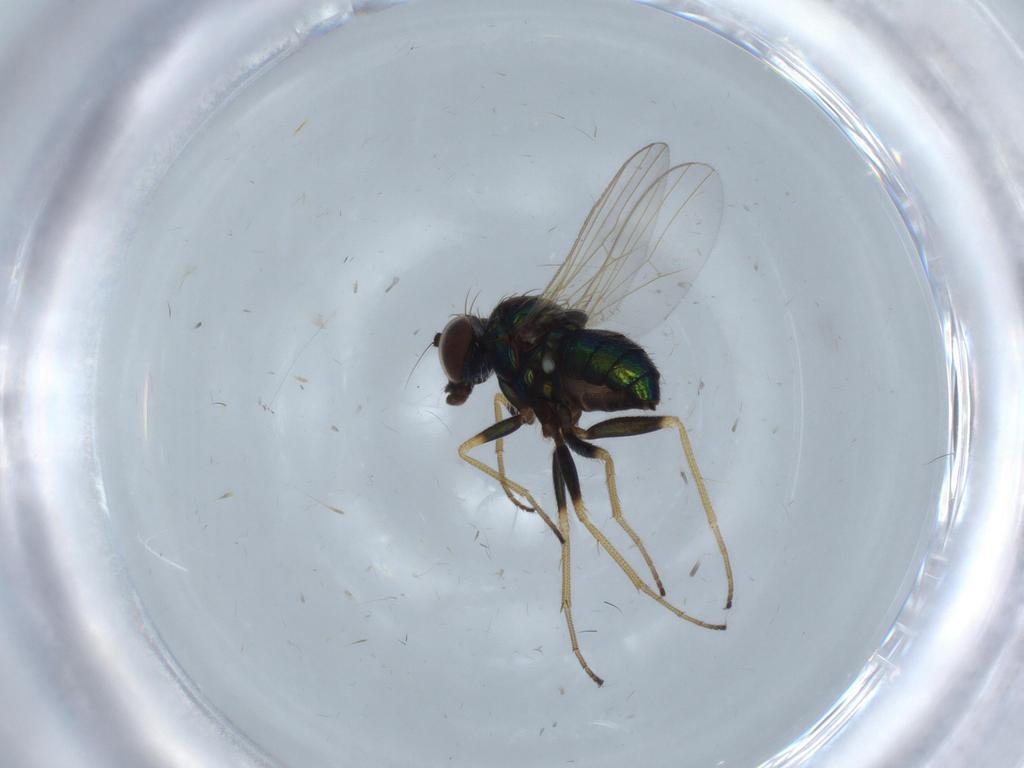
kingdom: Animalia
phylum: Arthropoda
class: Insecta
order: Diptera
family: Dolichopodidae
